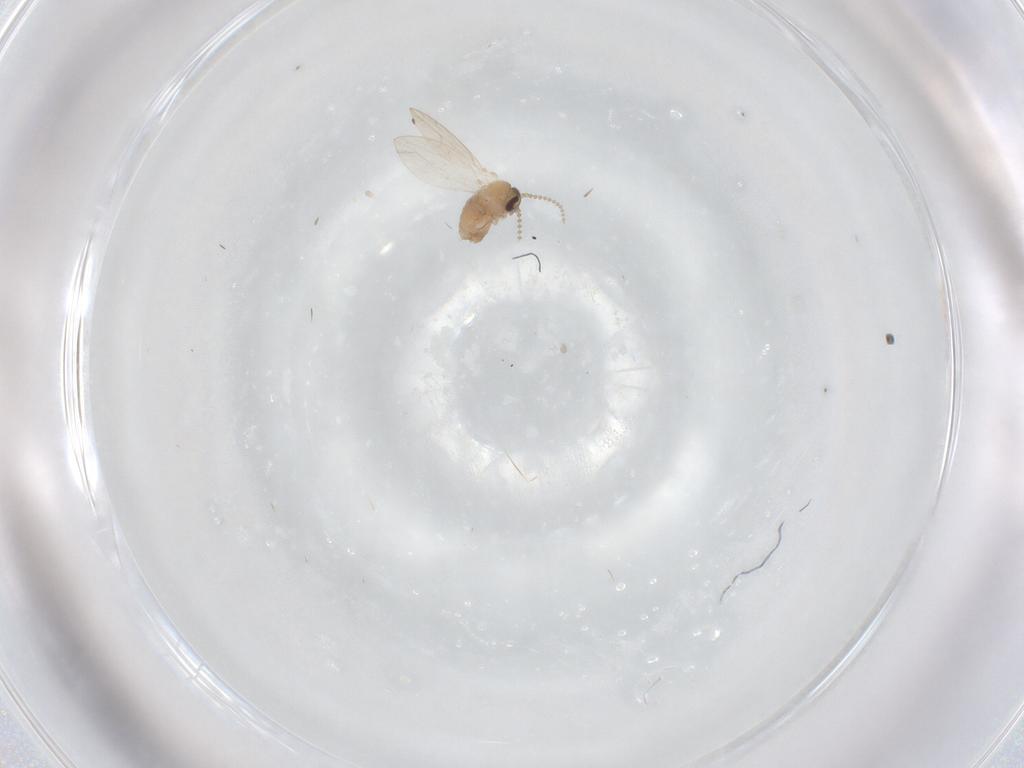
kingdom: Animalia
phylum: Arthropoda
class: Insecta
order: Diptera
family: Psychodidae
